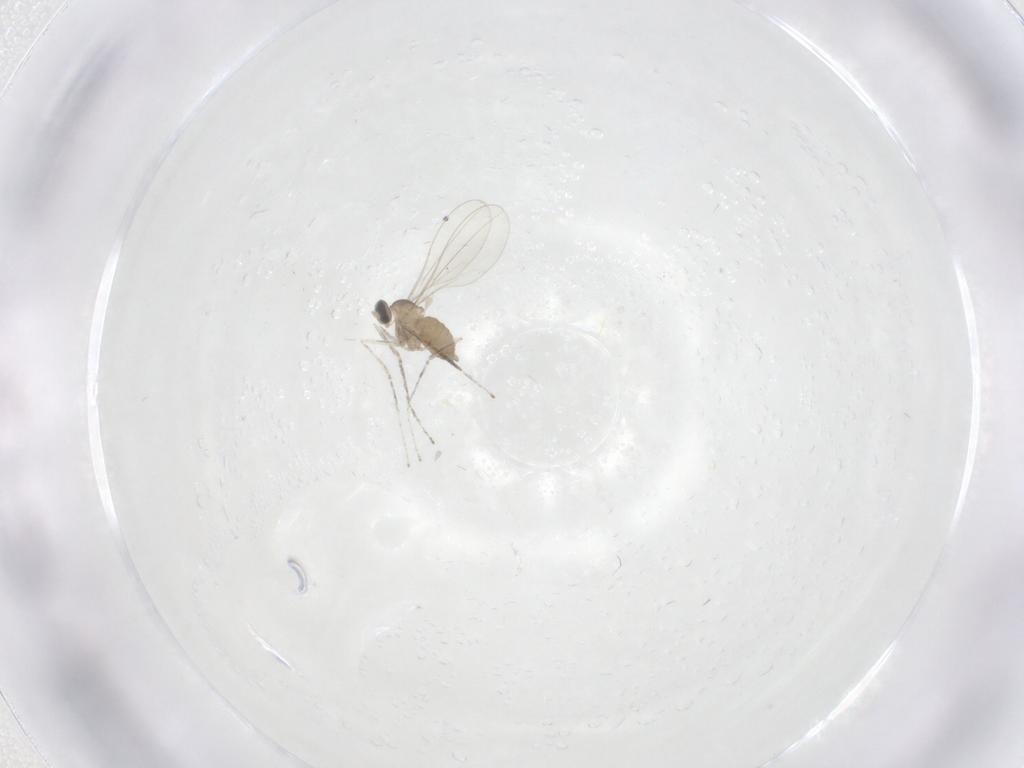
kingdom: Animalia
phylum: Arthropoda
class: Insecta
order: Diptera
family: Cecidomyiidae
